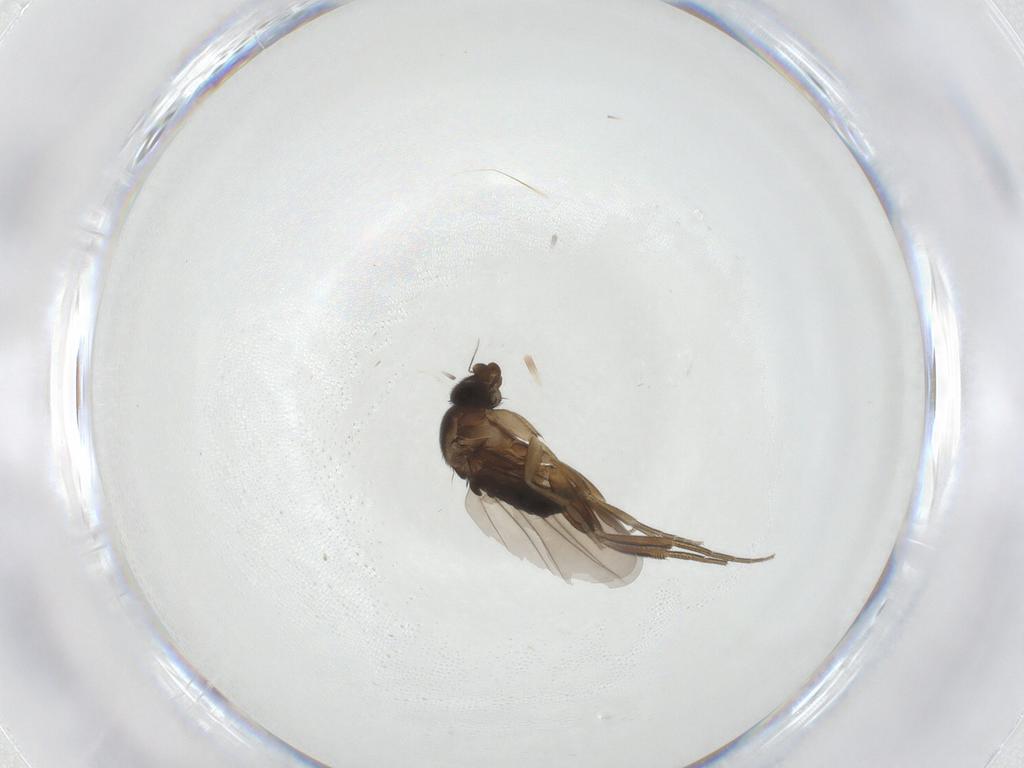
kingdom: Animalia
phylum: Arthropoda
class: Insecta
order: Diptera
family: Phoridae
